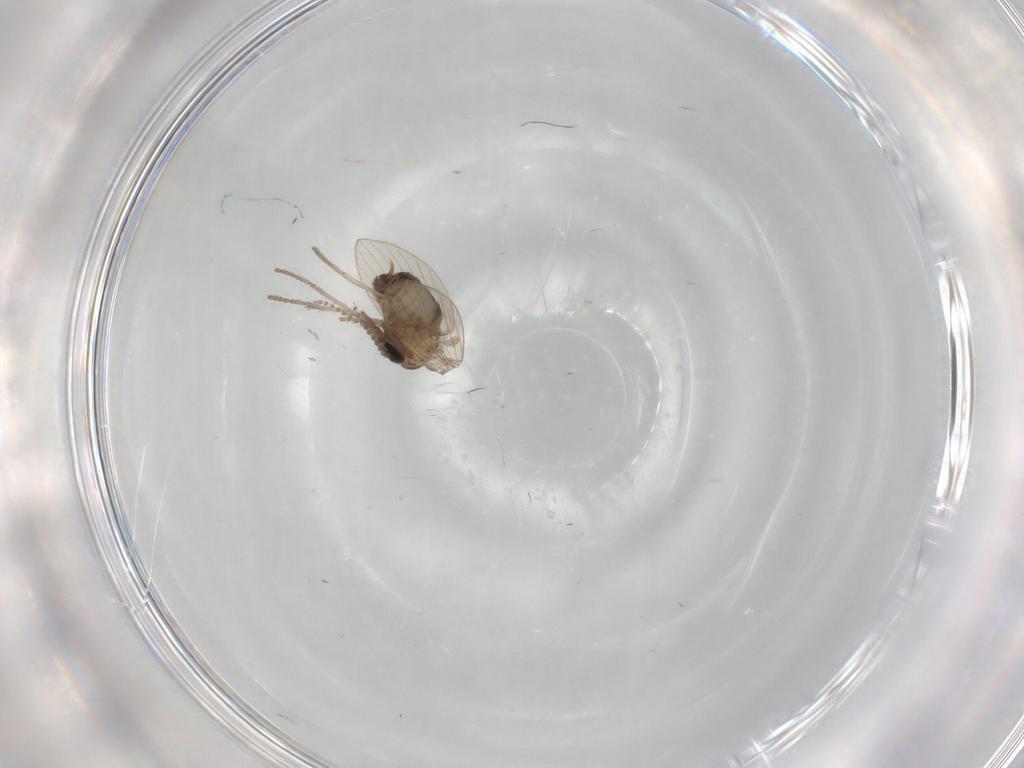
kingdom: Animalia
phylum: Arthropoda
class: Insecta
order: Diptera
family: Psychodidae
